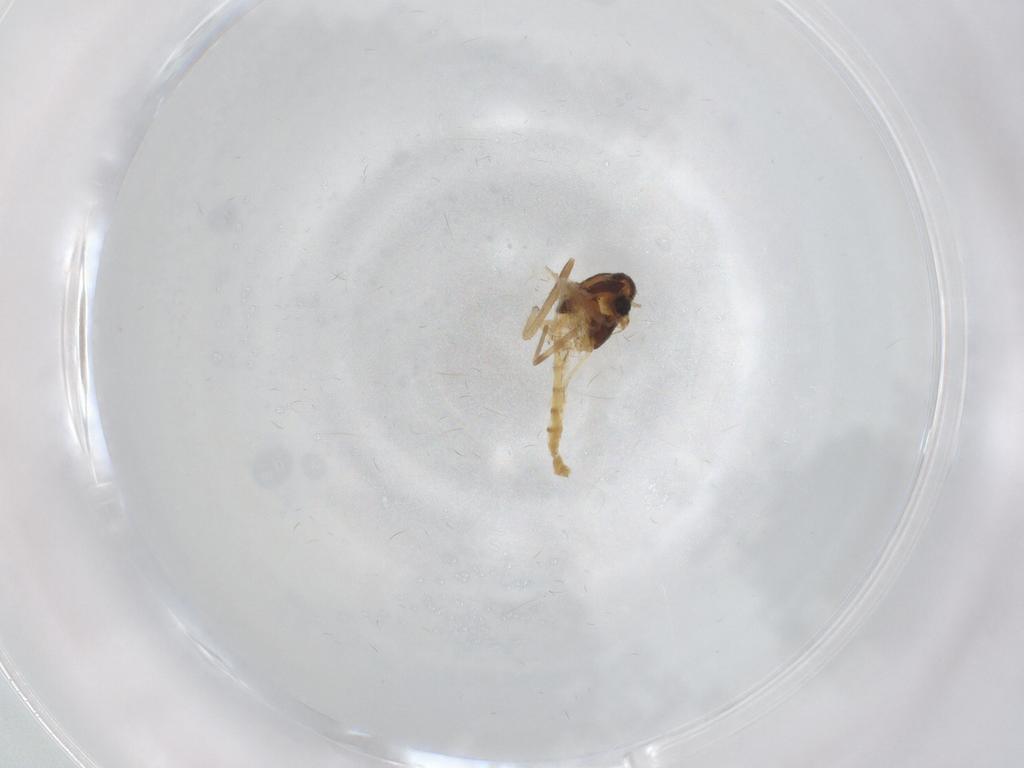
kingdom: Animalia
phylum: Arthropoda
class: Insecta
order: Diptera
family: Chironomidae
